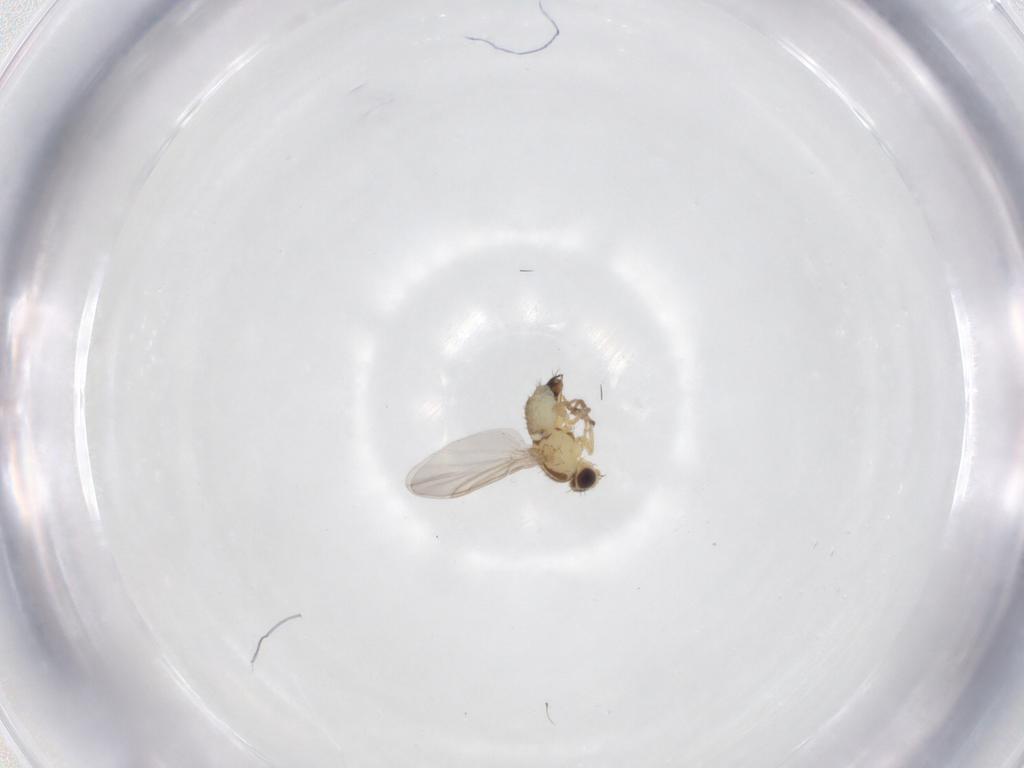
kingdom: Animalia
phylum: Arthropoda
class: Insecta
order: Diptera
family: Agromyzidae
